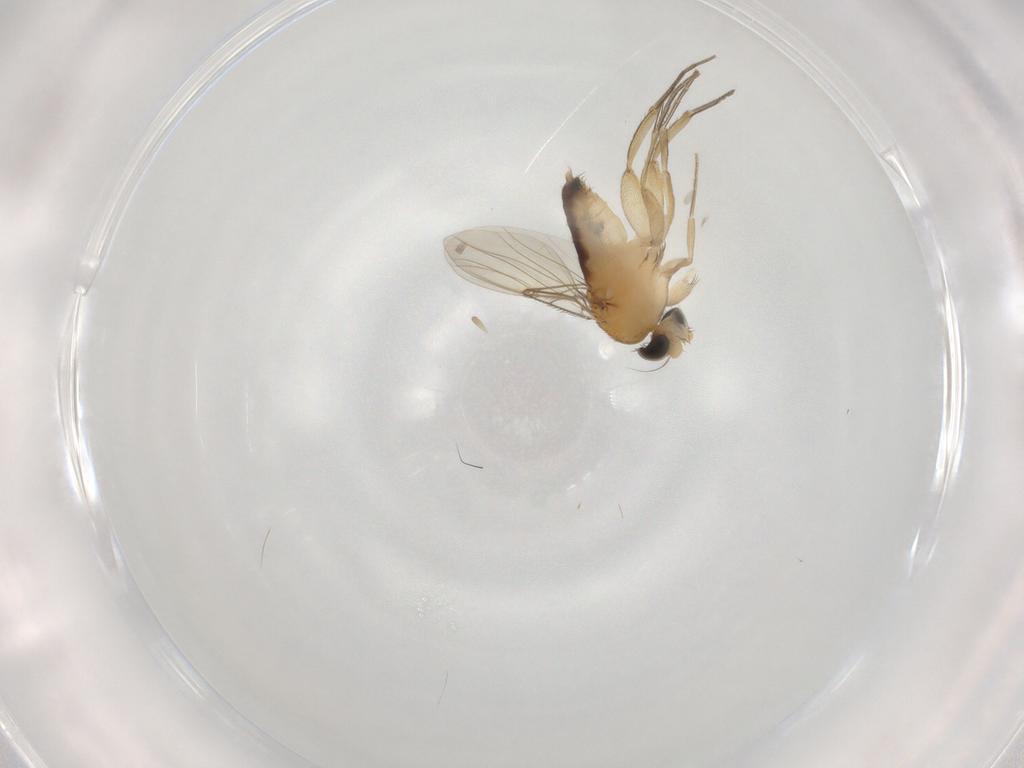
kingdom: Animalia
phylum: Arthropoda
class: Insecta
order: Diptera
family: Phoridae
